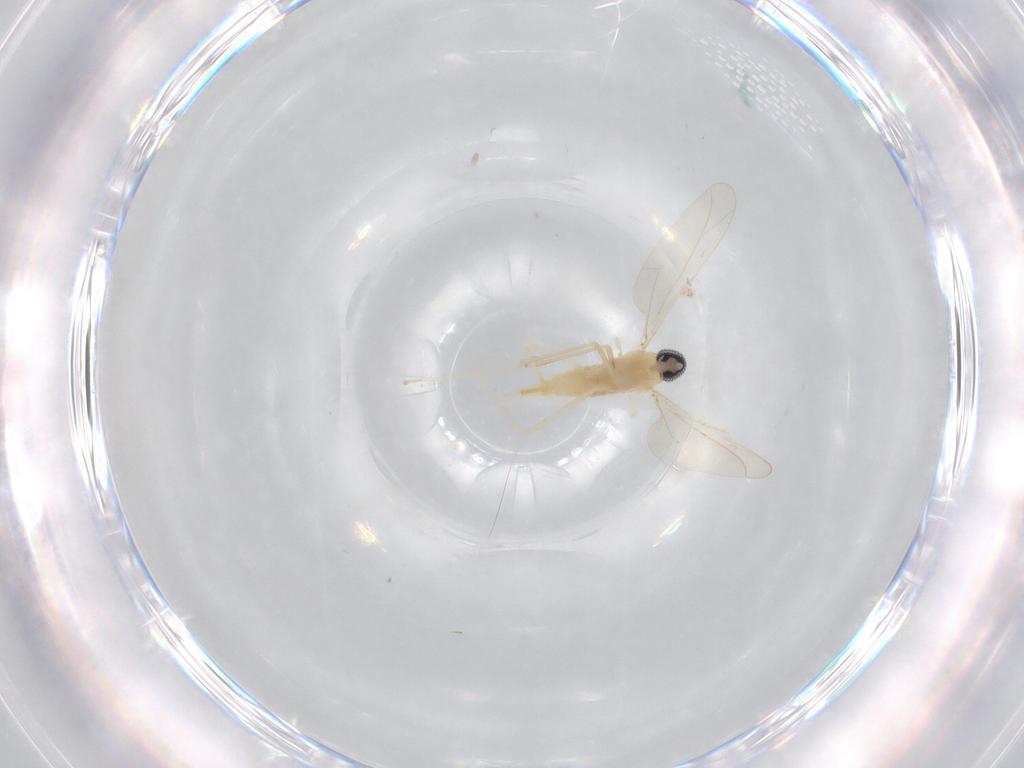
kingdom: Animalia
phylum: Arthropoda
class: Insecta
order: Diptera
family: Cecidomyiidae
